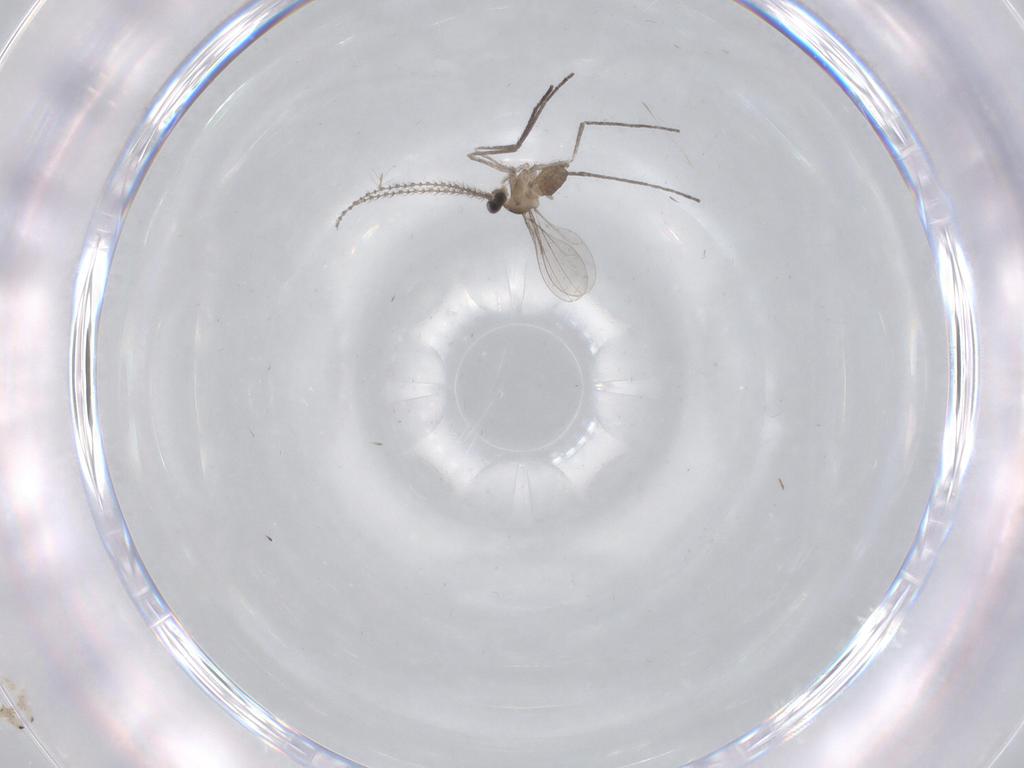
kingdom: Animalia
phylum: Arthropoda
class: Insecta
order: Diptera
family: Cecidomyiidae
